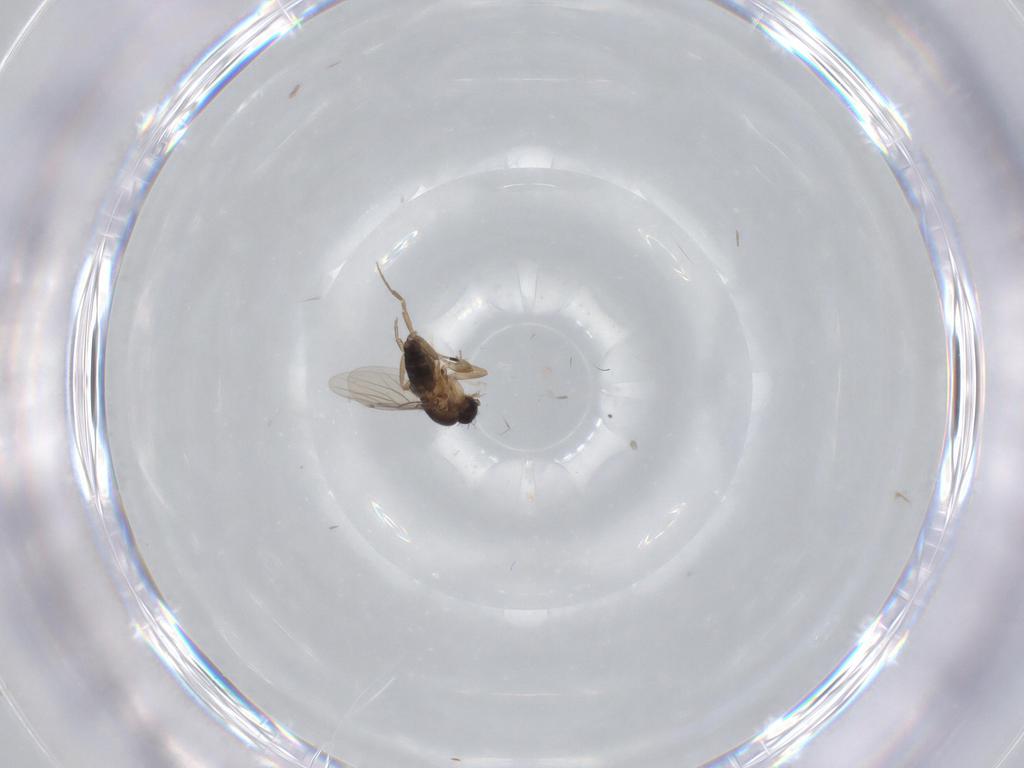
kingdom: Animalia
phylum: Arthropoda
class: Insecta
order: Diptera
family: Phoridae
